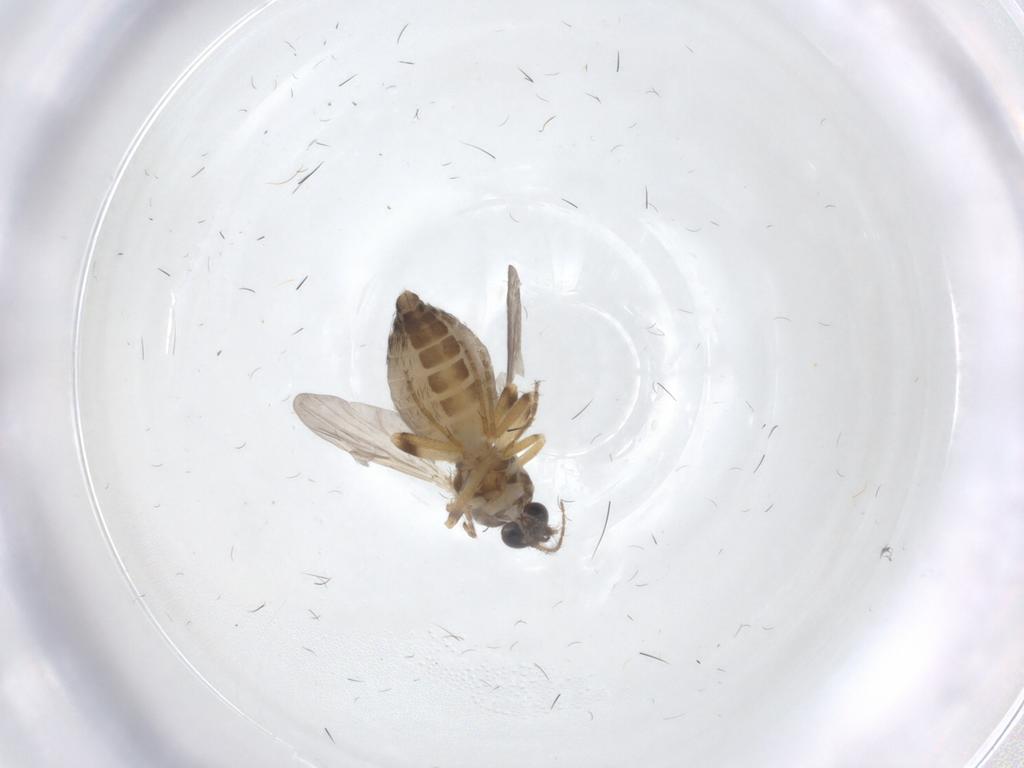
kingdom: Animalia
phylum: Arthropoda
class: Insecta
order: Diptera
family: Ceratopogonidae
